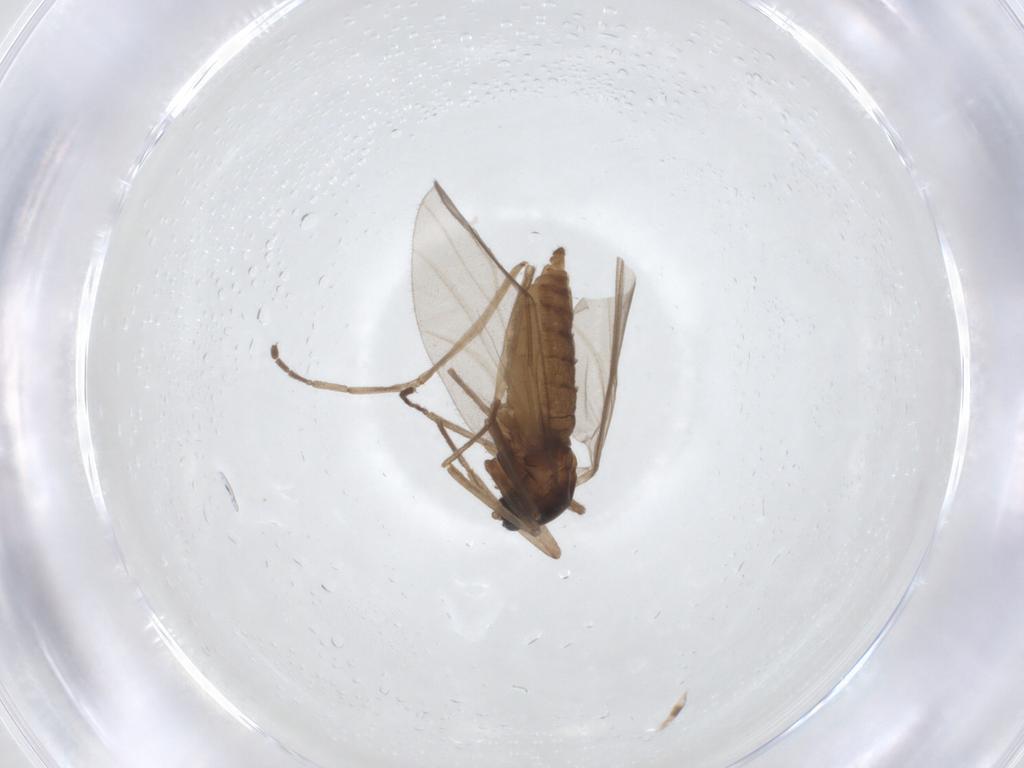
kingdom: Animalia
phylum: Arthropoda
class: Insecta
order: Diptera
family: Cecidomyiidae
